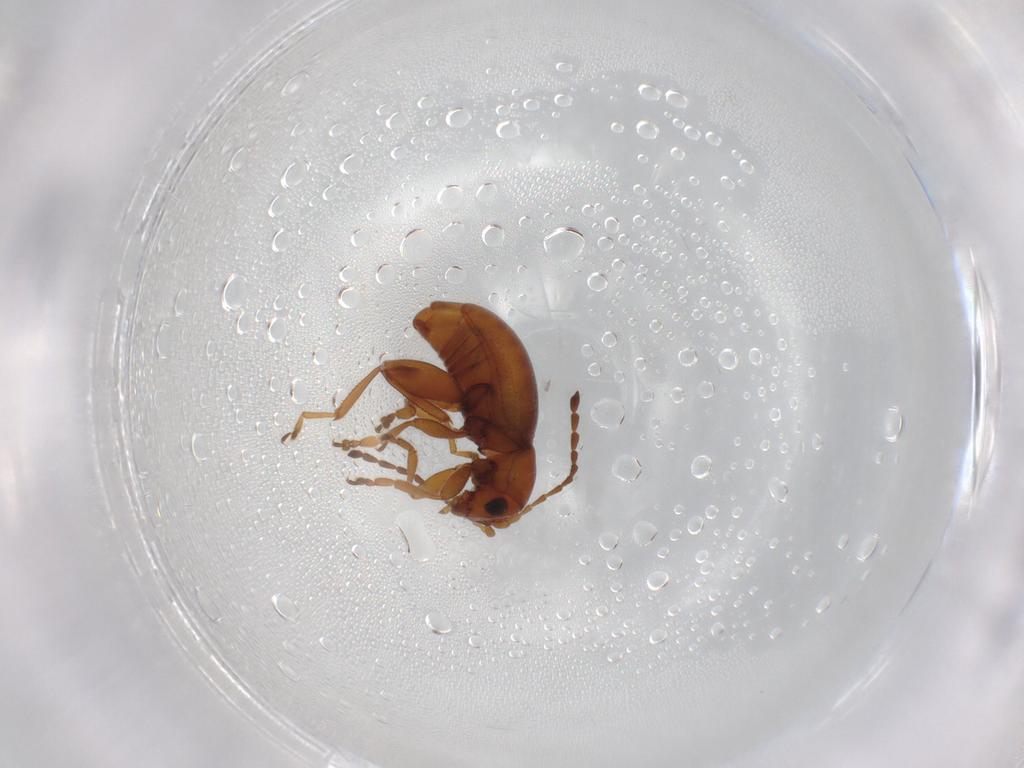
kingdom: Animalia
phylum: Arthropoda
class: Insecta
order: Coleoptera
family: Chrysomelidae
